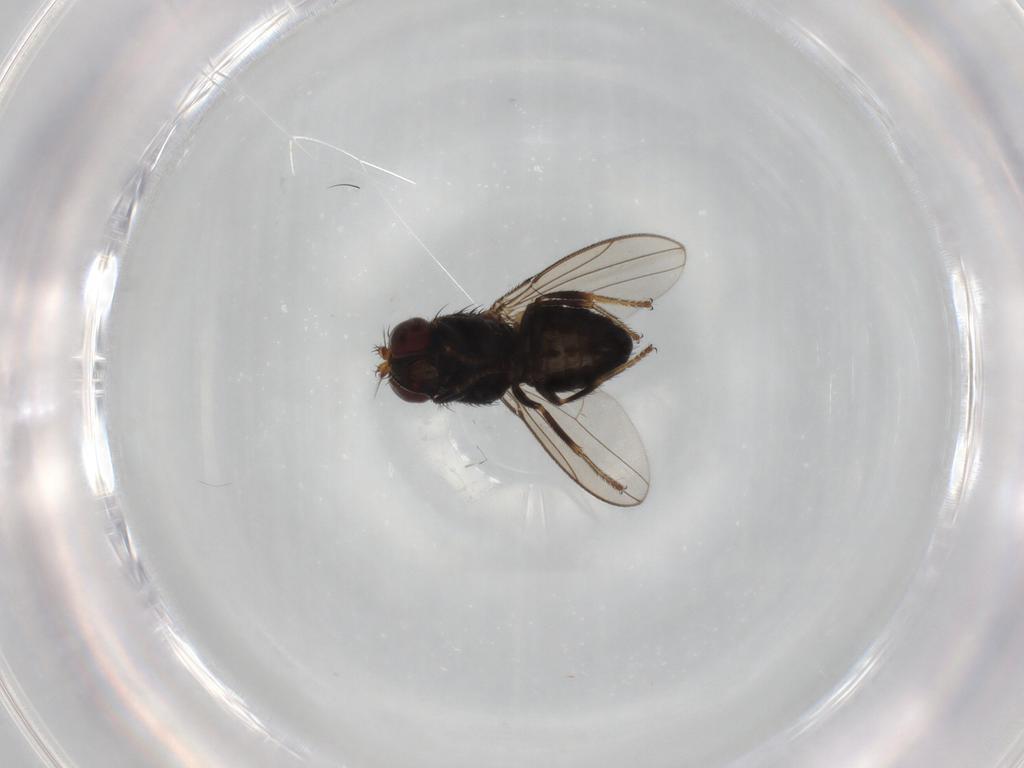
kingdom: Animalia
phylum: Arthropoda
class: Insecta
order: Diptera
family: Ephydridae
